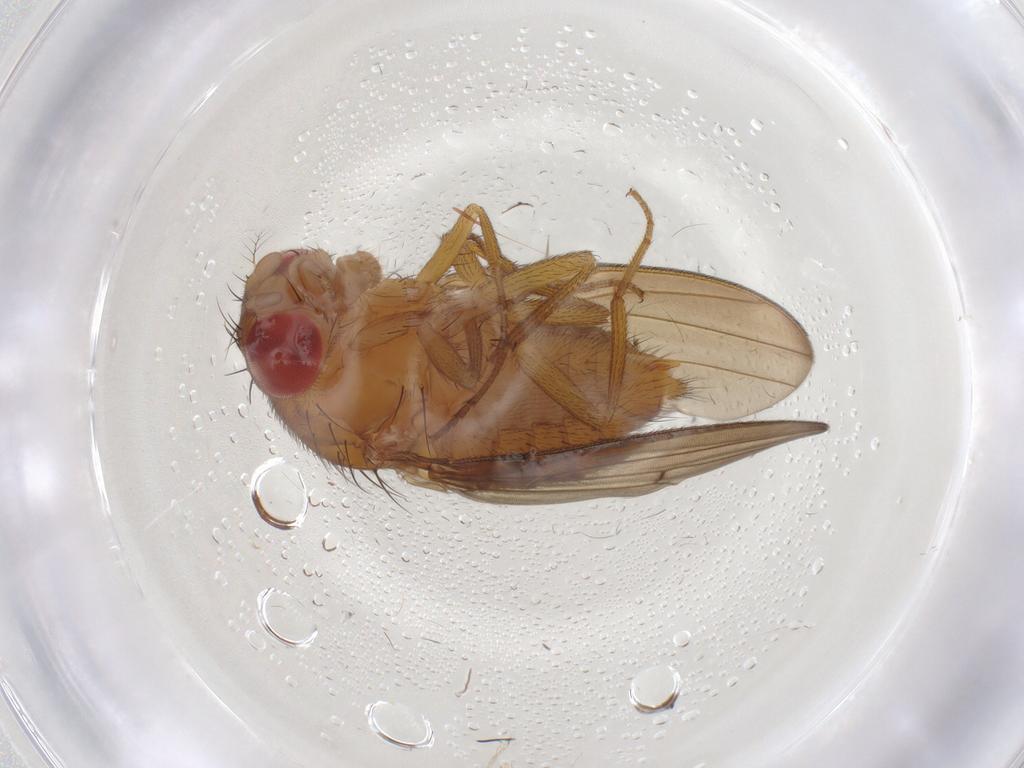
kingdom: Animalia
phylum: Arthropoda
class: Insecta
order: Diptera
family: Drosophilidae
